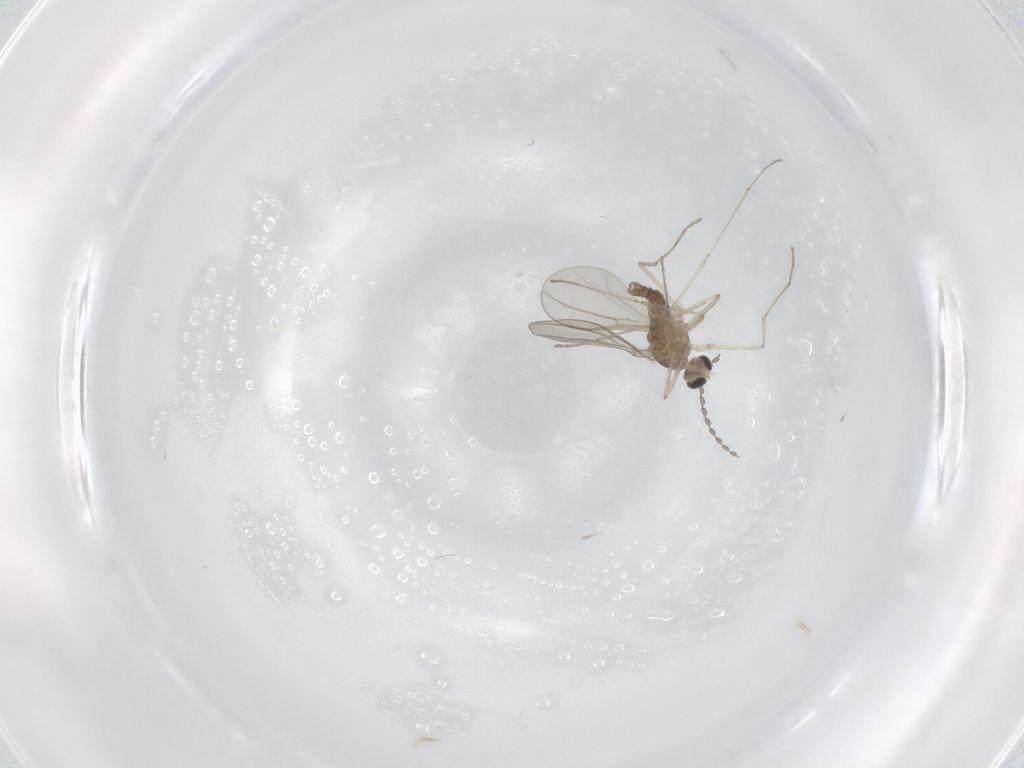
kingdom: Animalia
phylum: Arthropoda
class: Insecta
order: Diptera
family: Cecidomyiidae
